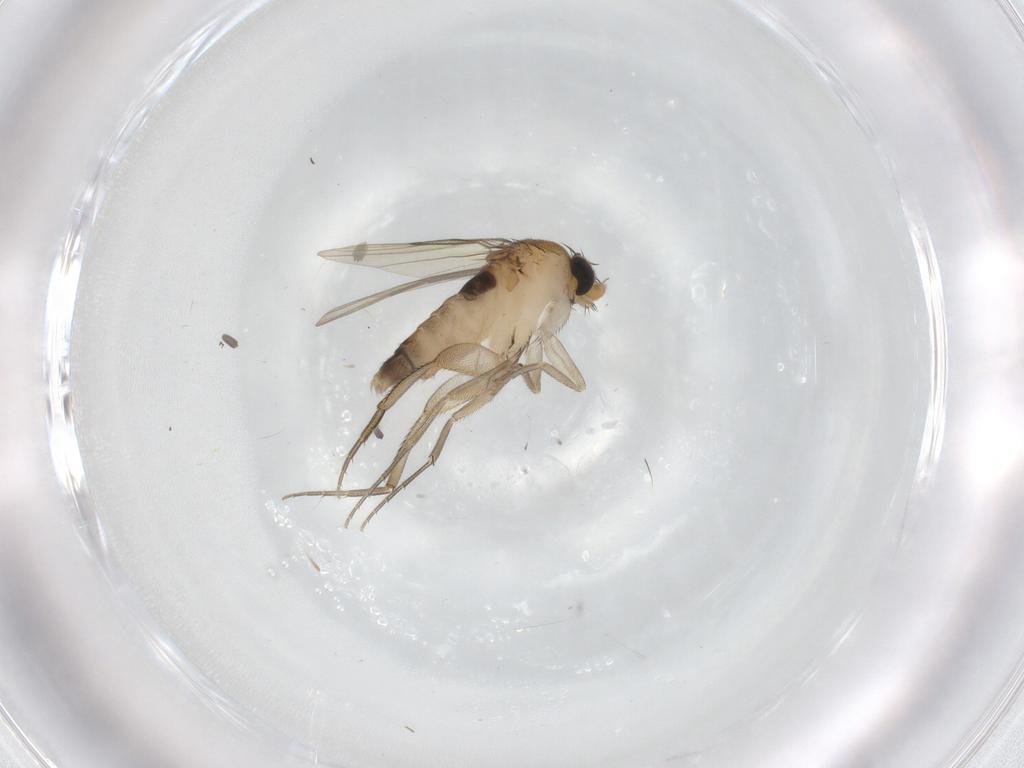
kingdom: Animalia
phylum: Arthropoda
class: Insecta
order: Diptera
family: Phoridae
